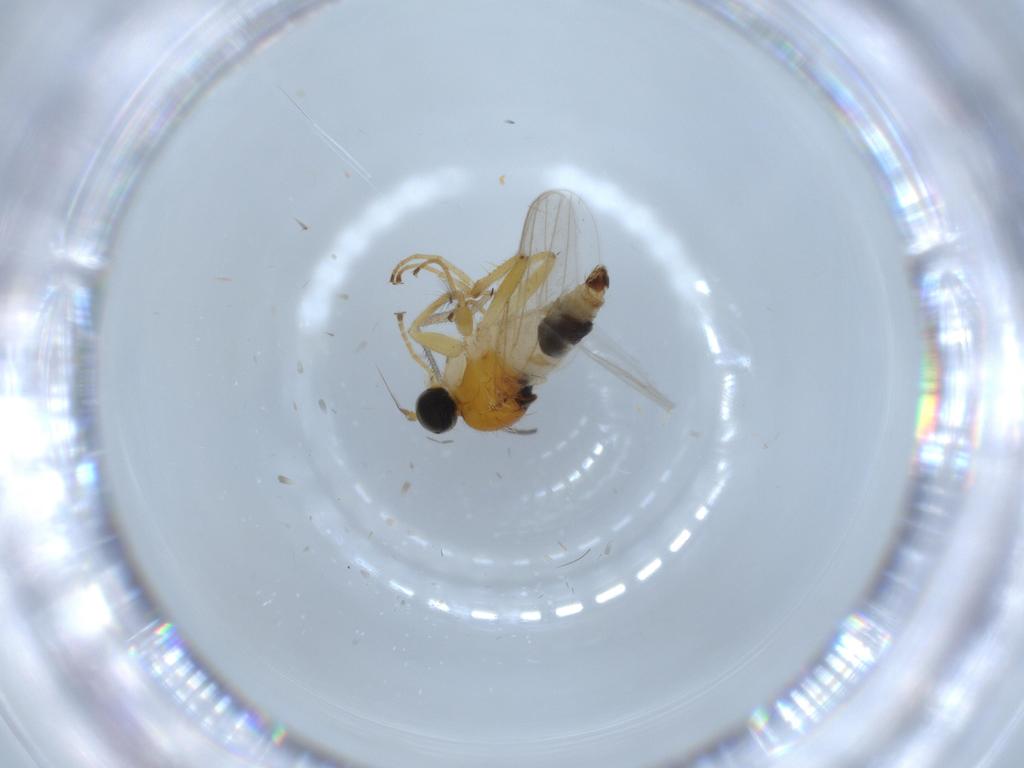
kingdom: Animalia
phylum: Arthropoda
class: Insecta
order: Diptera
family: Hybotidae
